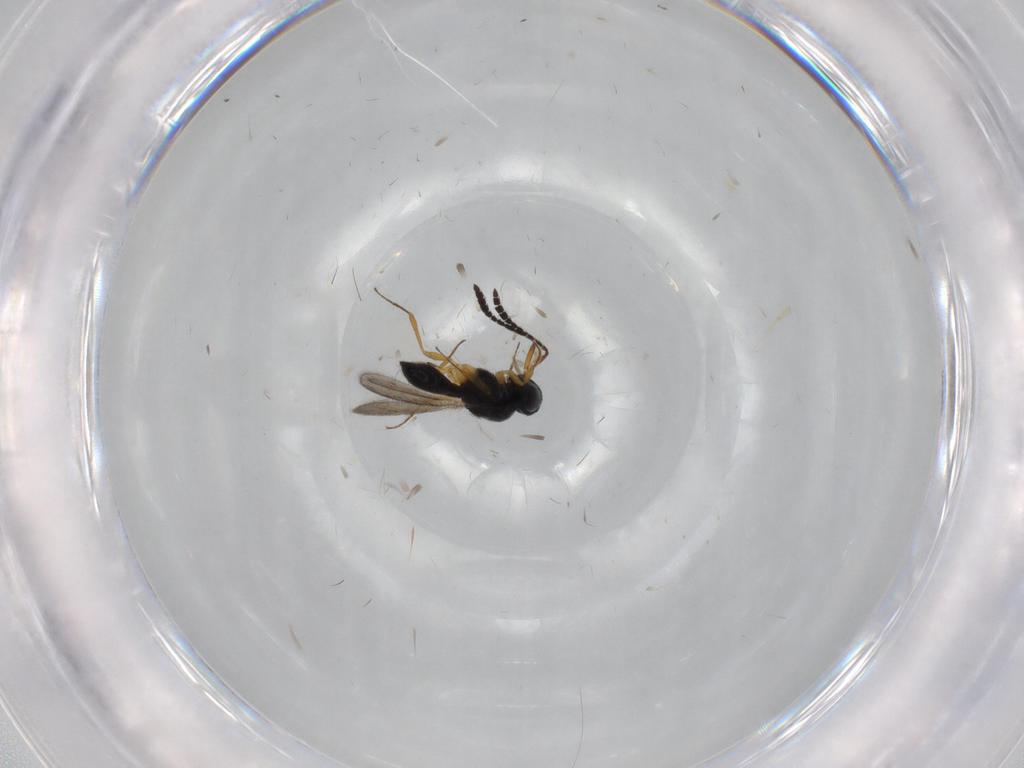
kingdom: Animalia
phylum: Arthropoda
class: Insecta
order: Hymenoptera
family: Scelionidae
